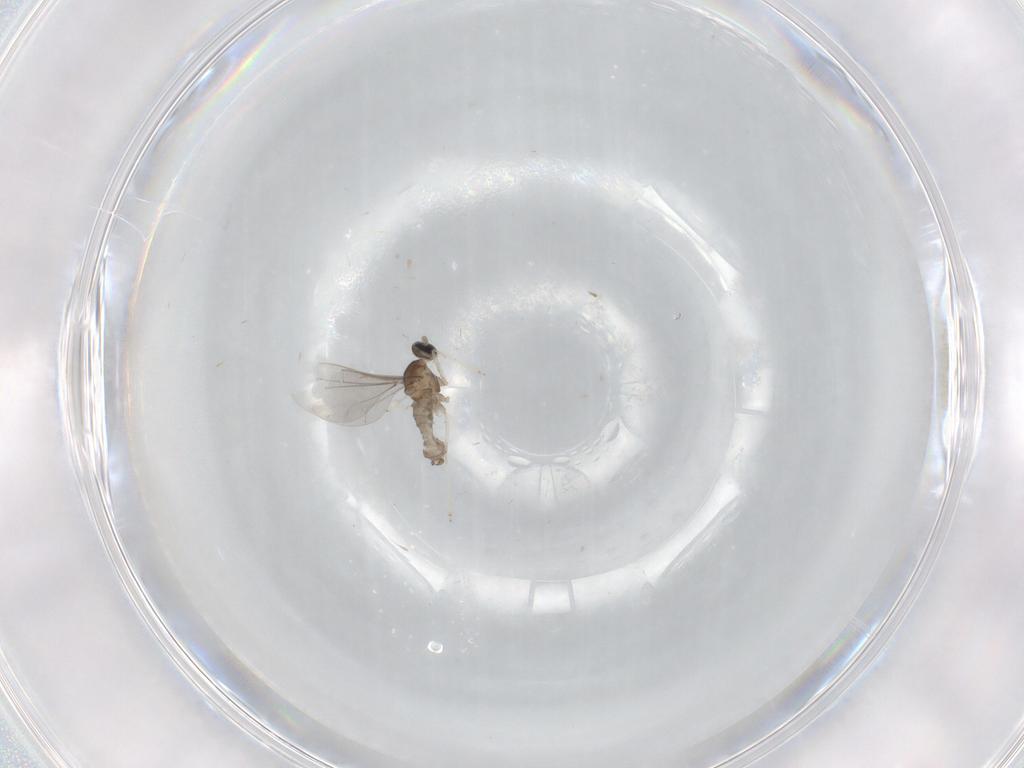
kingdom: Animalia
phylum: Arthropoda
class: Insecta
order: Diptera
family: Cecidomyiidae
